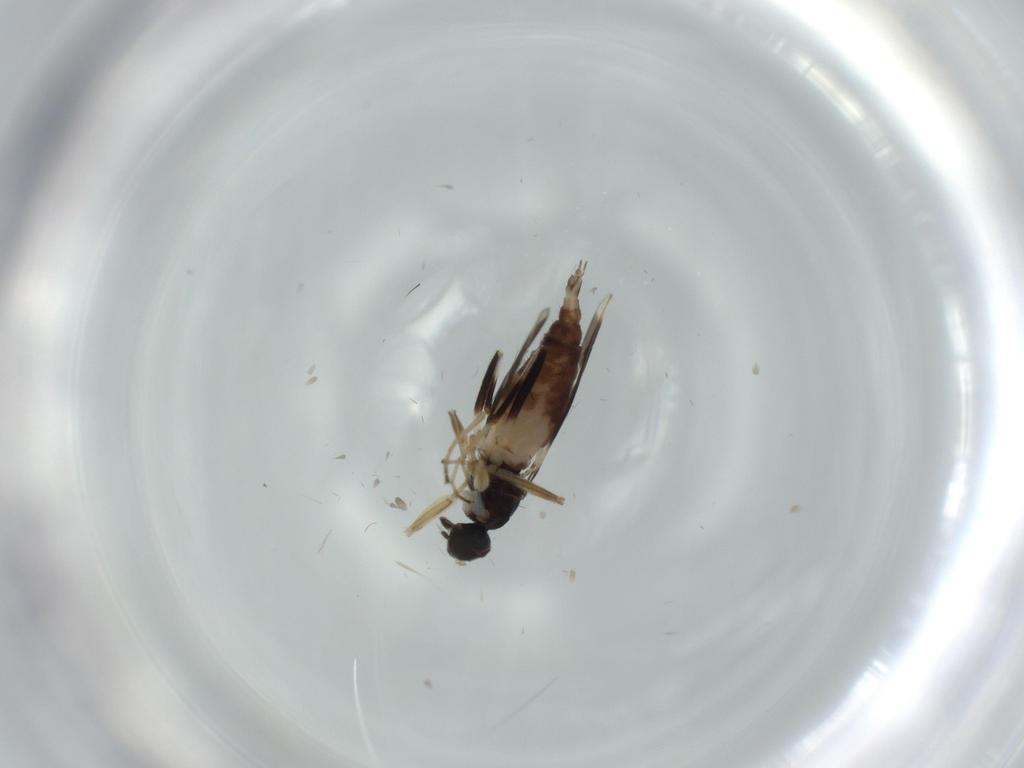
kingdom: Animalia
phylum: Arthropoda
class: Insecta
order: Diptera
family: Hybotidae
